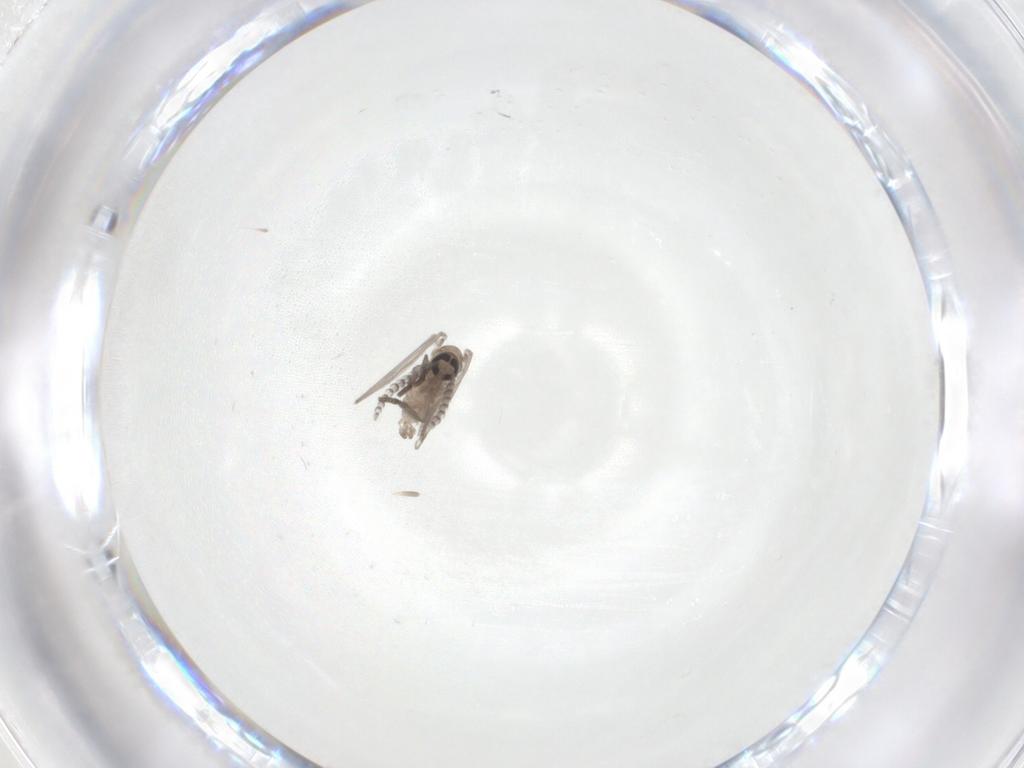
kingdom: Animalia
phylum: Arthropoda
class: Insecta
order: Diptera
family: Psychodidae
